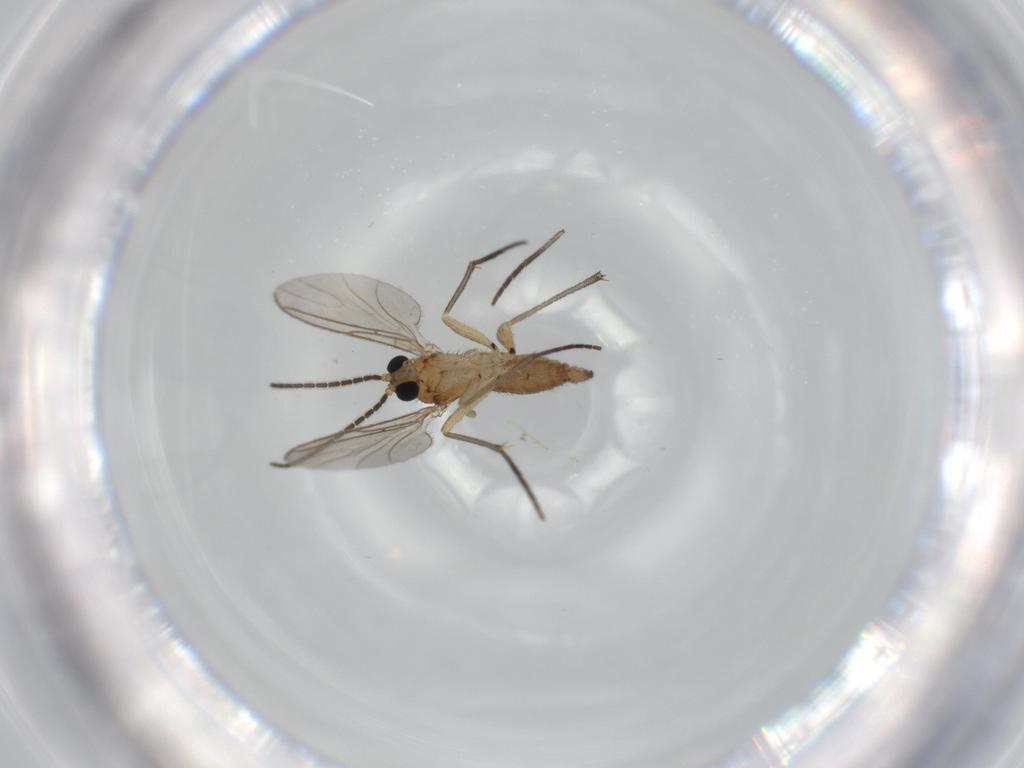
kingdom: Animalia
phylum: Arthropoda
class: Insecta
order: Diptera
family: Sciaridae
